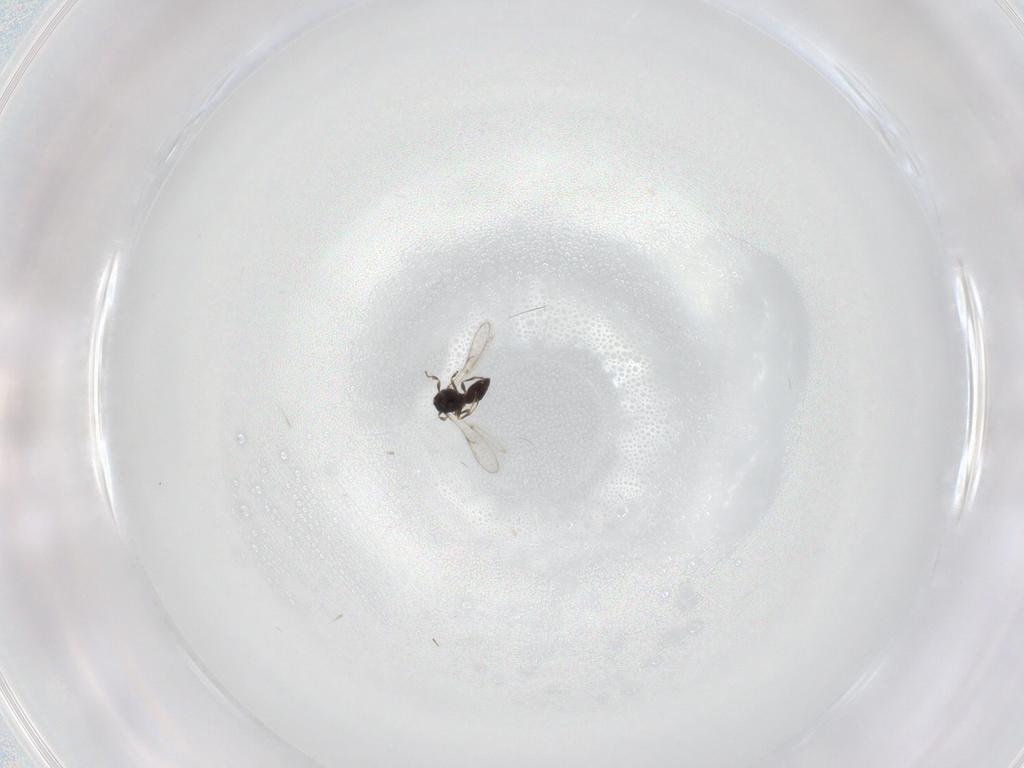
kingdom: Animalia
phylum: Arthropoda
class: Insecta
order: Hymenoptera
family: Scelionidae
